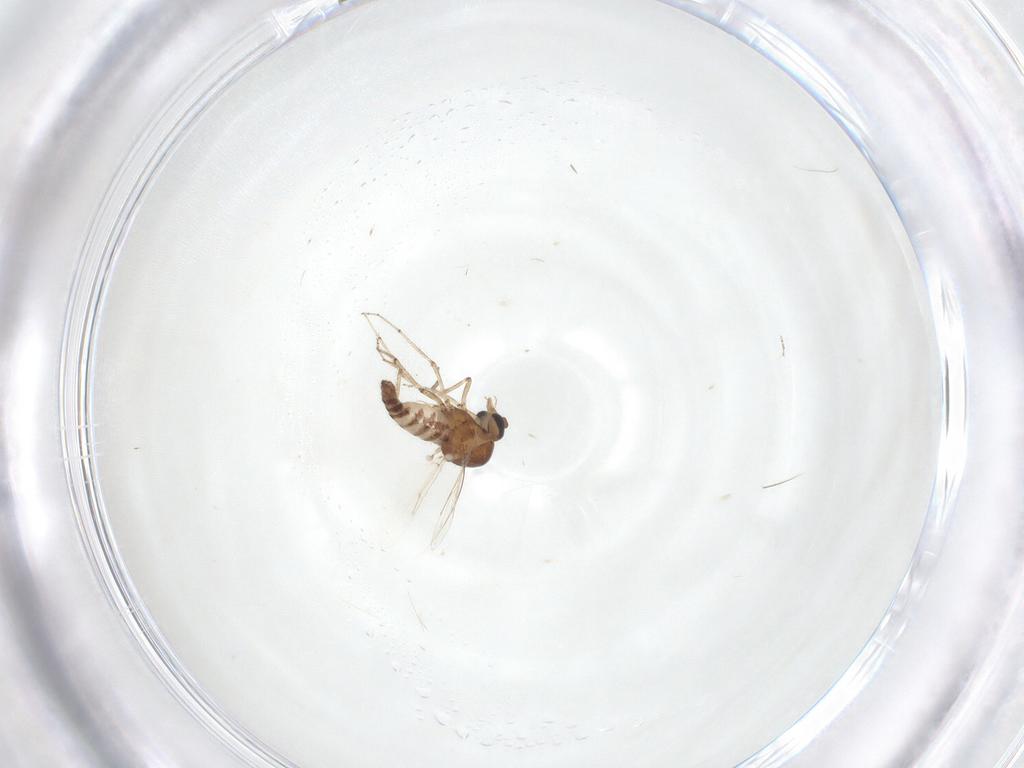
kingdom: Animalia
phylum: Arthropoda
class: Insecta
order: Diptera
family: Ceratopogonidae
